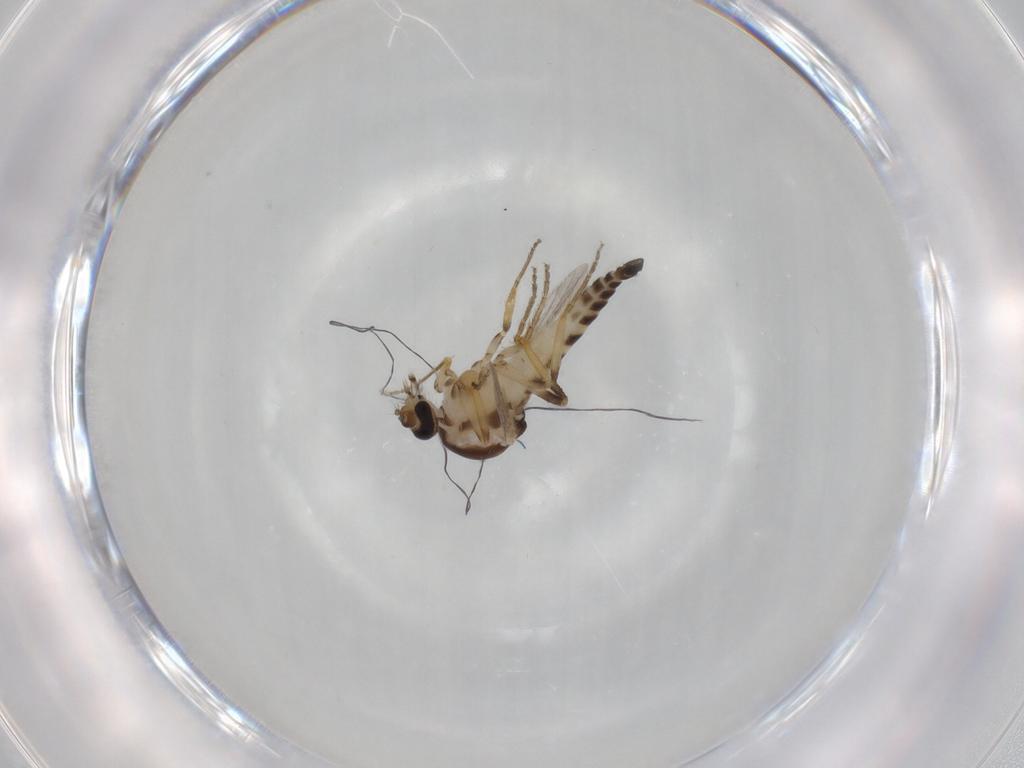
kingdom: Animalia
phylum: Arthropoda
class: Insecta
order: Diptera
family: Ceratopogonidae
